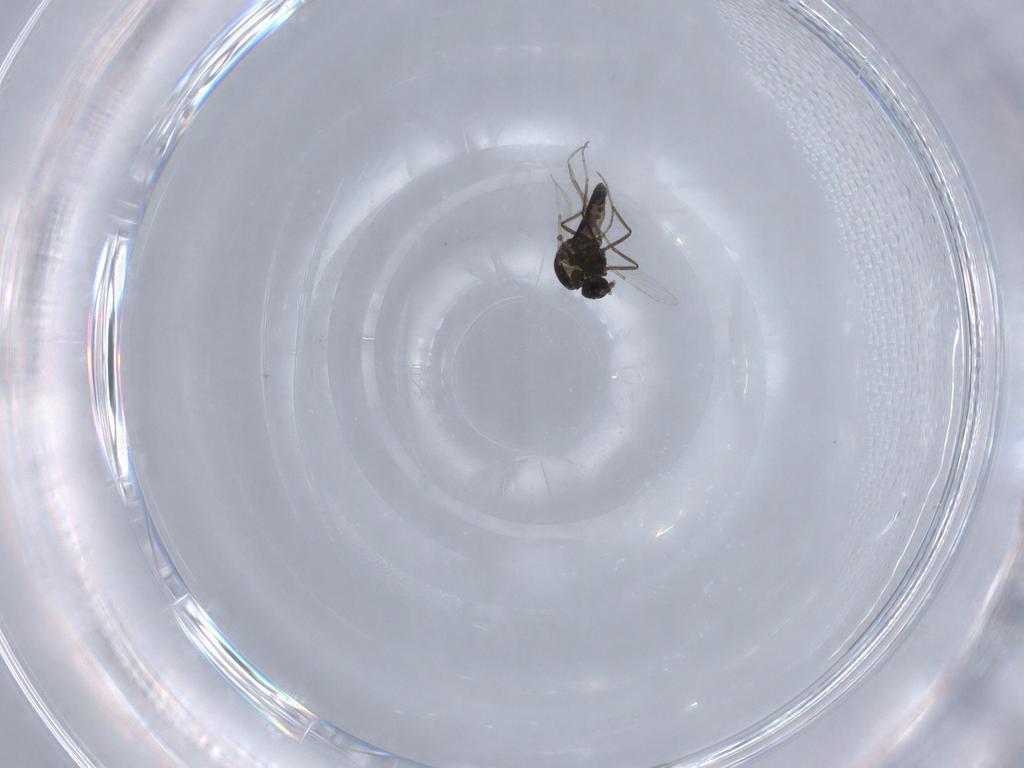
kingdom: Animalia
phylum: Arthropoda
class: Insecta
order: Diptera
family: Ceratopogonidae
